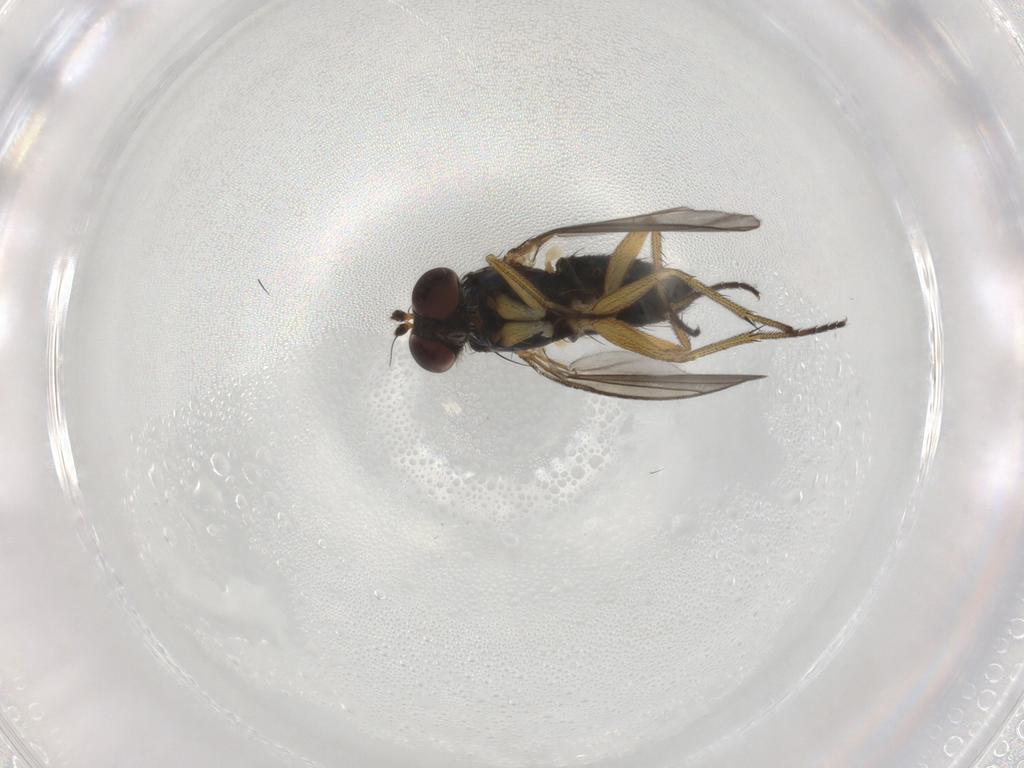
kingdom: Animalia
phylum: Arthropoda
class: Insecta
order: Diptera
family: Dolichopodidae
